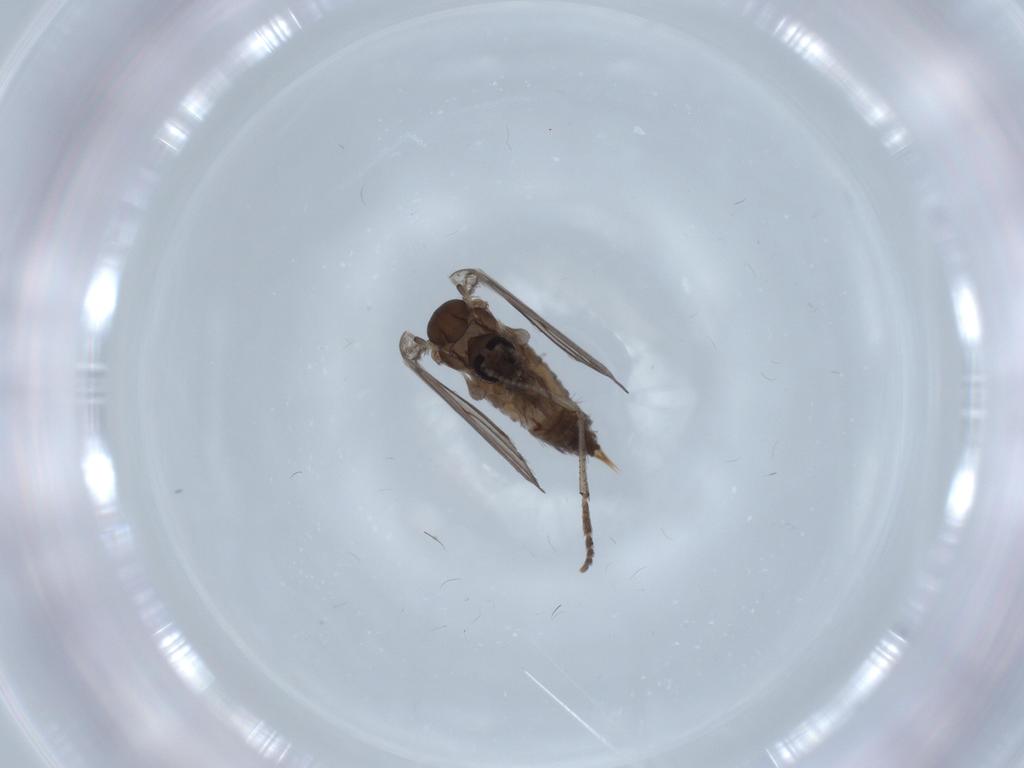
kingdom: Animalia
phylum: Arthropoda
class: Insecta
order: Diptera
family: Psychodidae
